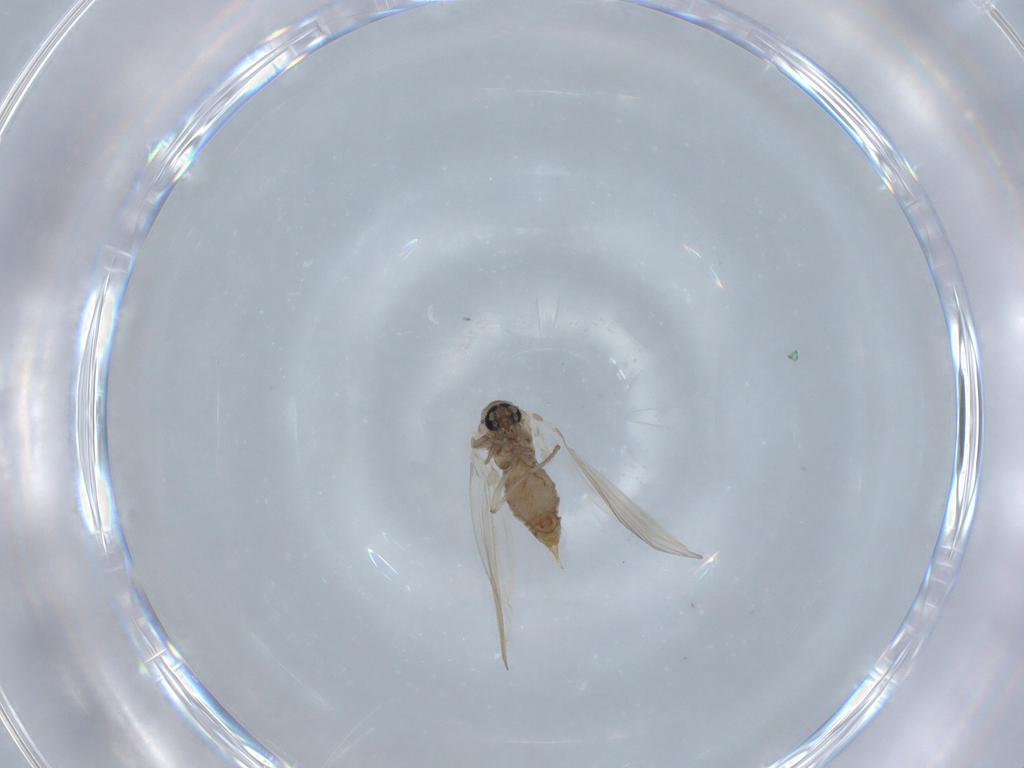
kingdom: Animalia
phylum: Arthropoda
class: Insecta
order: Diptera
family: Psychodidae
